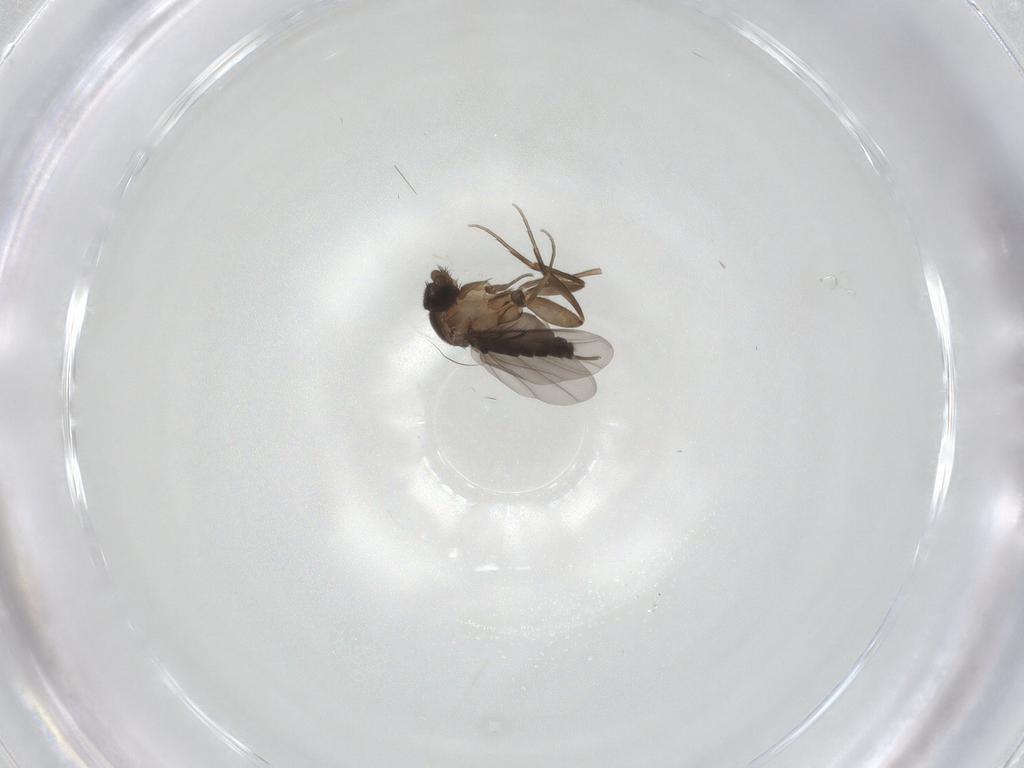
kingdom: Animalia
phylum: Arthropoda
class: Insecta
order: Diptera
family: Phoridae
